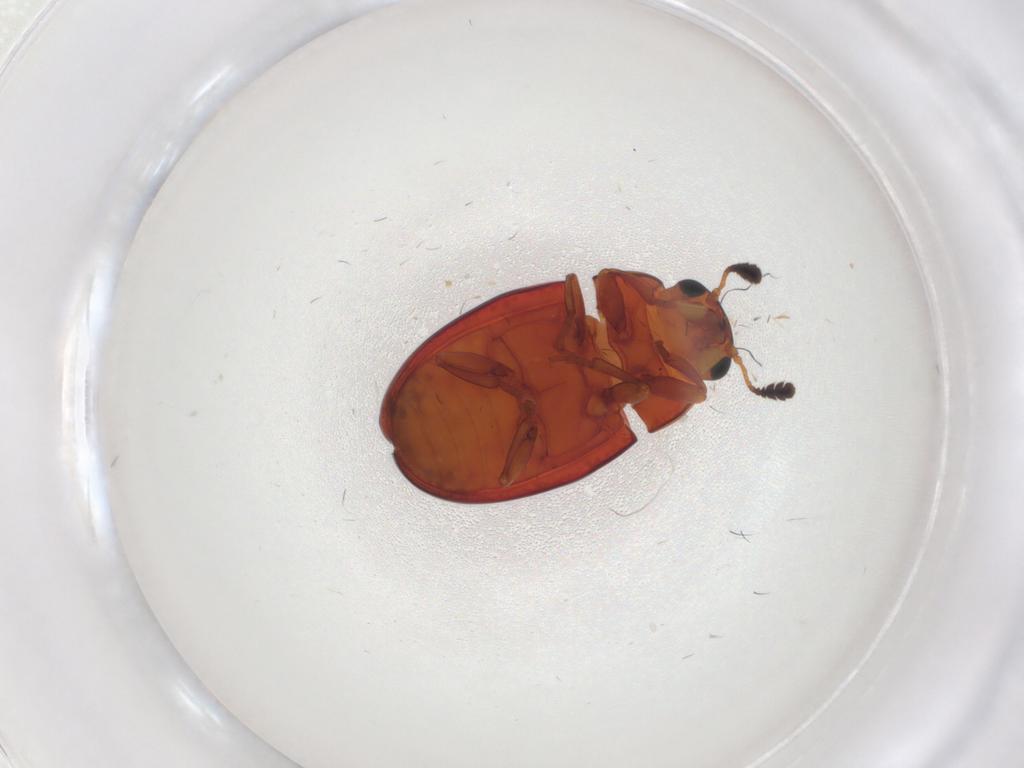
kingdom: Animalia
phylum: Arthropoda
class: Insecta
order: Coleoptera
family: Erotylidae
